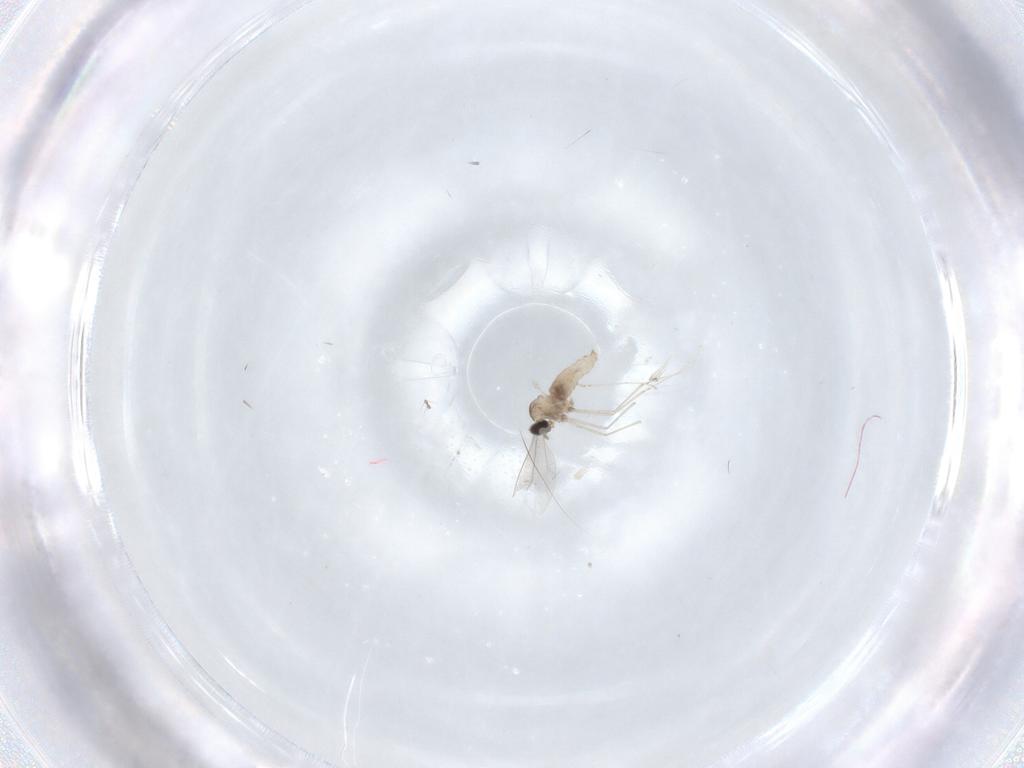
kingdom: Animalia
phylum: Arthropoda
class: Insecta
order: Diptera
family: Cecidomyiidae
